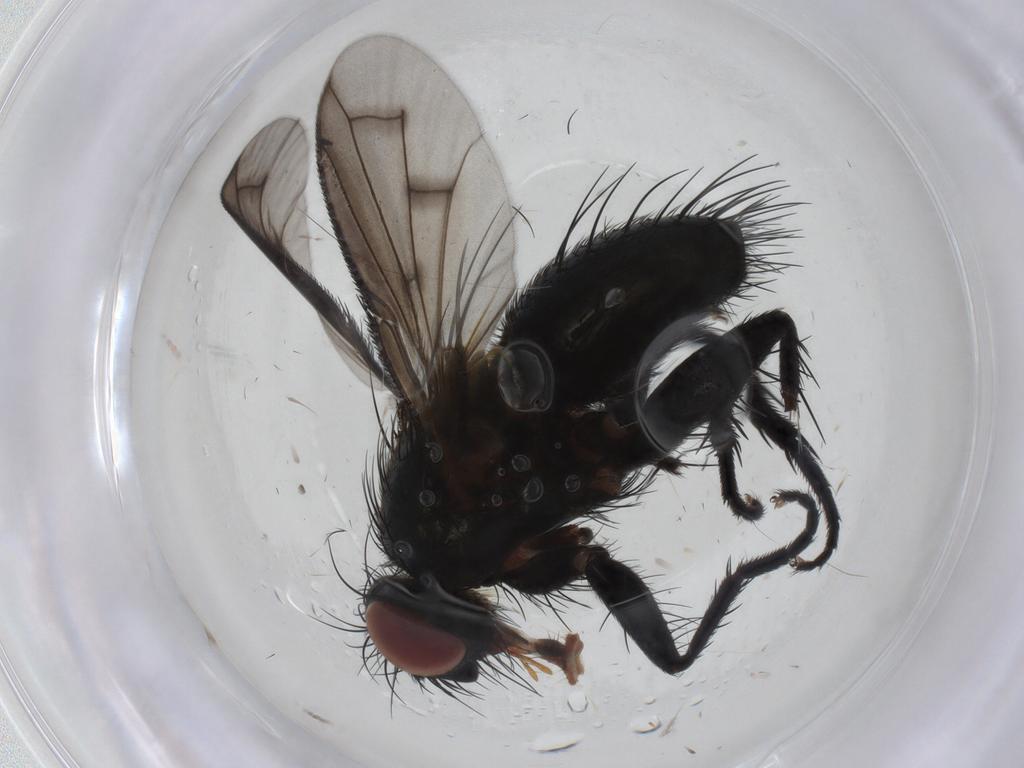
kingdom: Animalia
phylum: Arthropoda
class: Insecta
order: Diptera
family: Tachinidae
